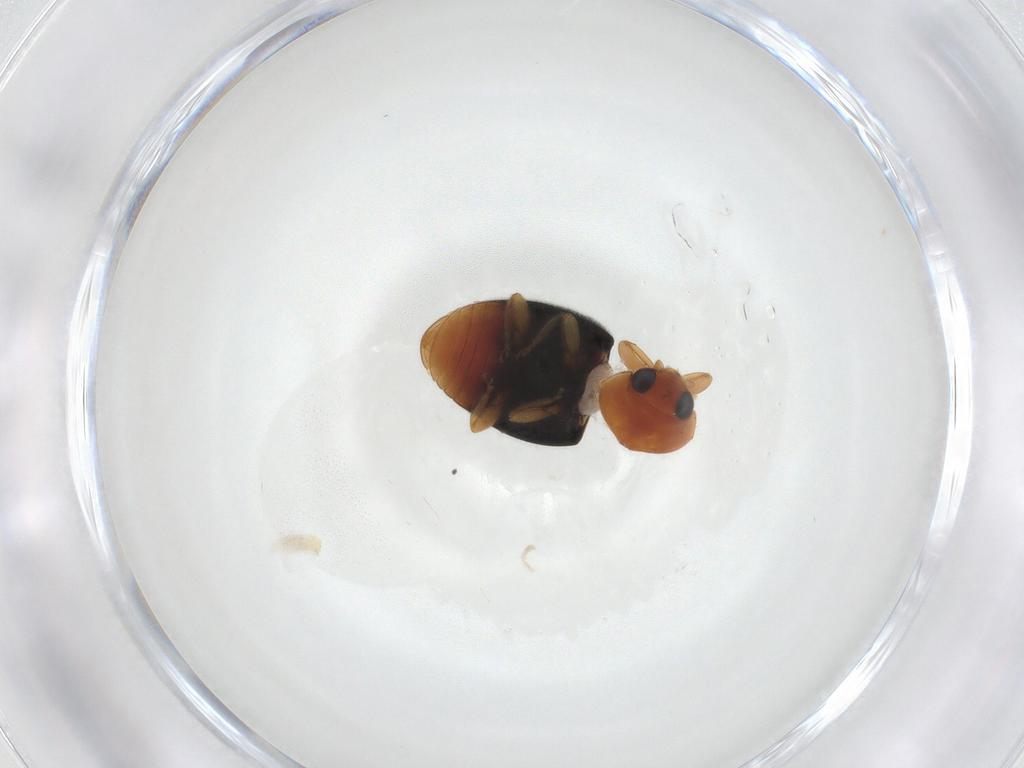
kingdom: Animalia
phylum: Arthropoda
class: Insecta
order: Coleoptera
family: Coccinellidae
